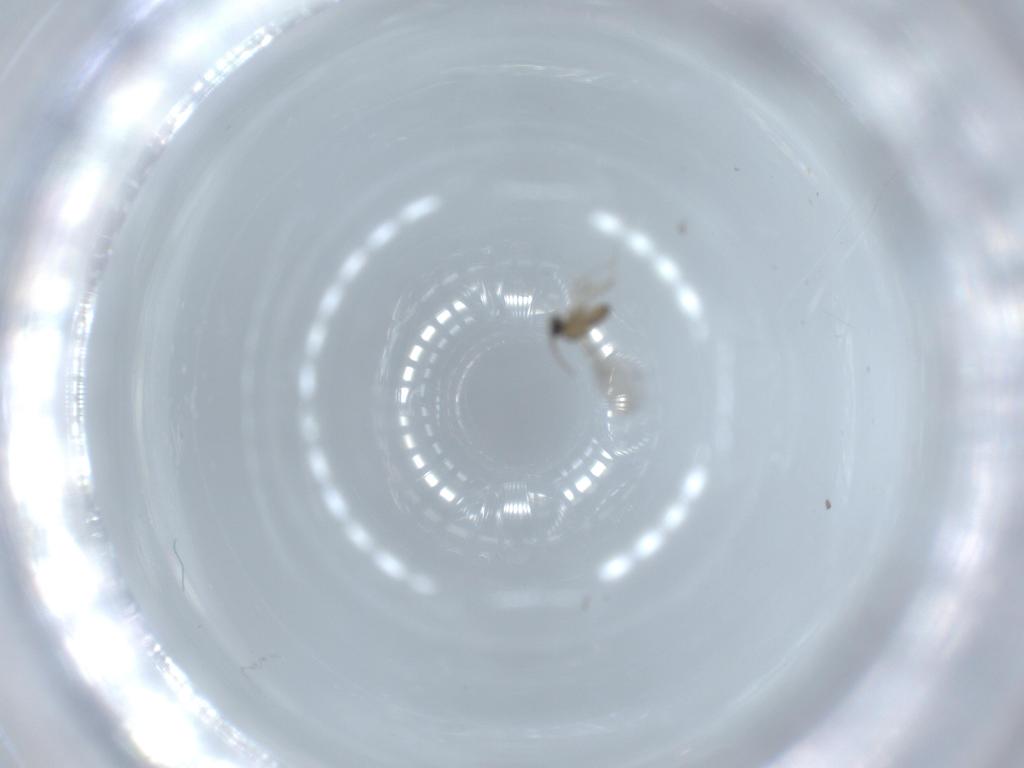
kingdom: Animalia
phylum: Arthropoda
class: Insecta
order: Diptera
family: Cecidomyiidae
